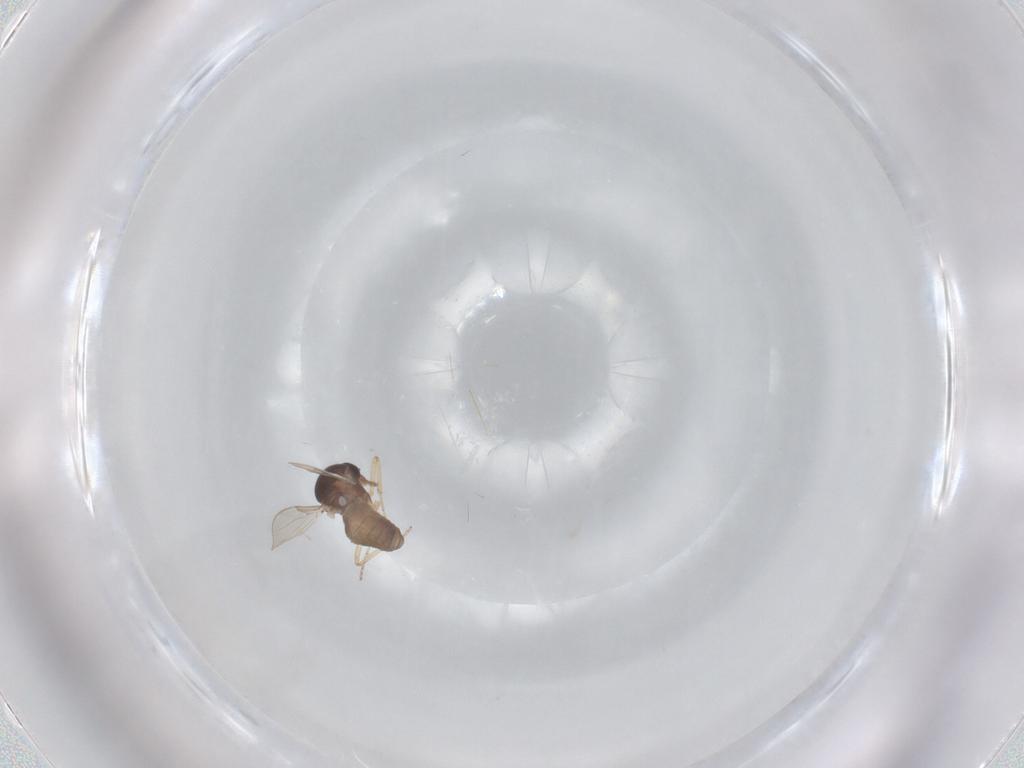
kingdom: Animalia
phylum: Arthropoda
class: Insecta
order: Diptera
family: Ceratopogonidae
